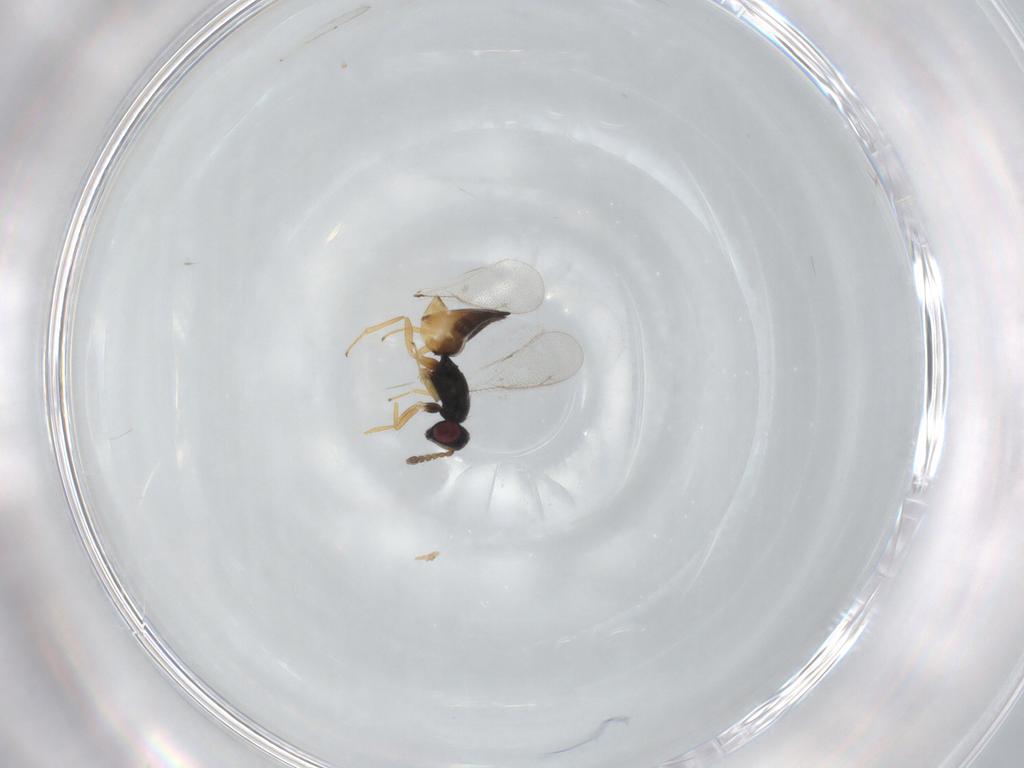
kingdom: Animalia
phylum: Arthropoda
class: Insecta
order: Hymenoptera
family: Eulophidae
